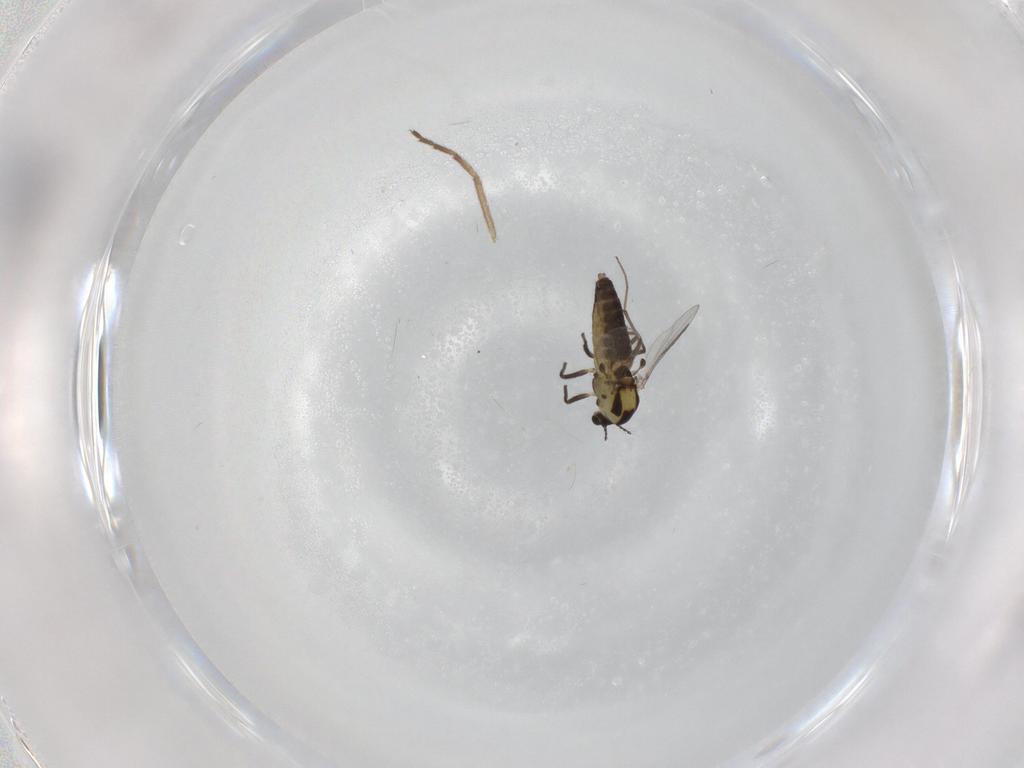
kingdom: Animalia
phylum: Arthropoda
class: Insecta
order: Diptera
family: Chironomidae
